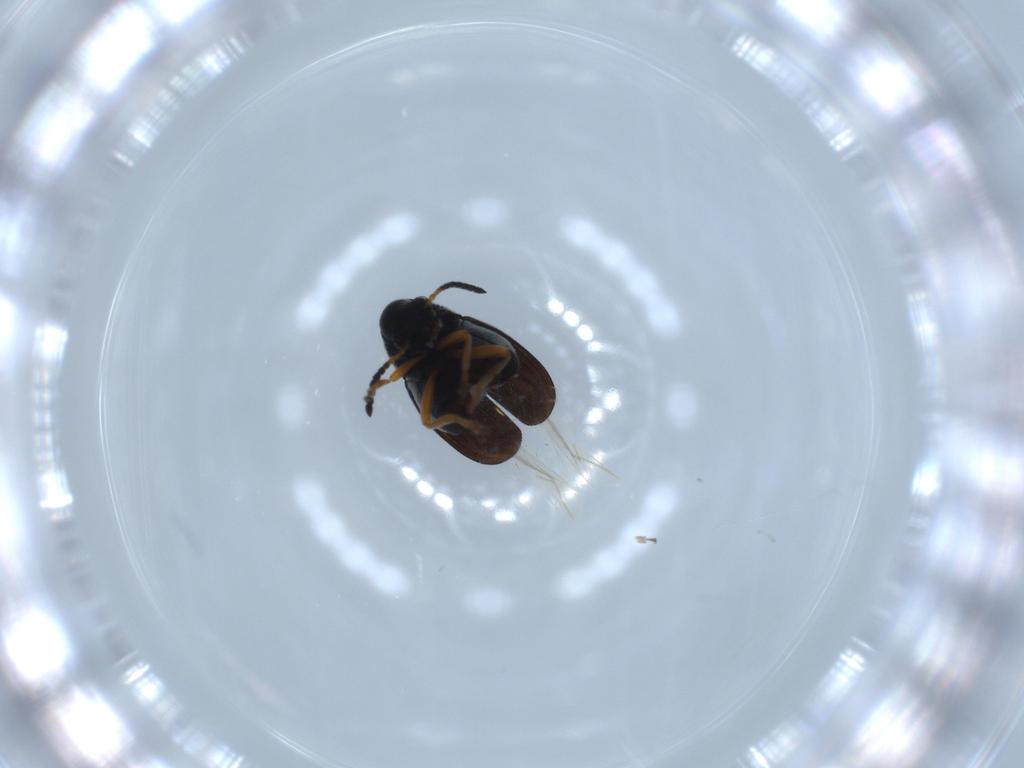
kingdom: Animalia
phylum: Arthropoda
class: Insecta
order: Coleoptera
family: Chrysomelidae
